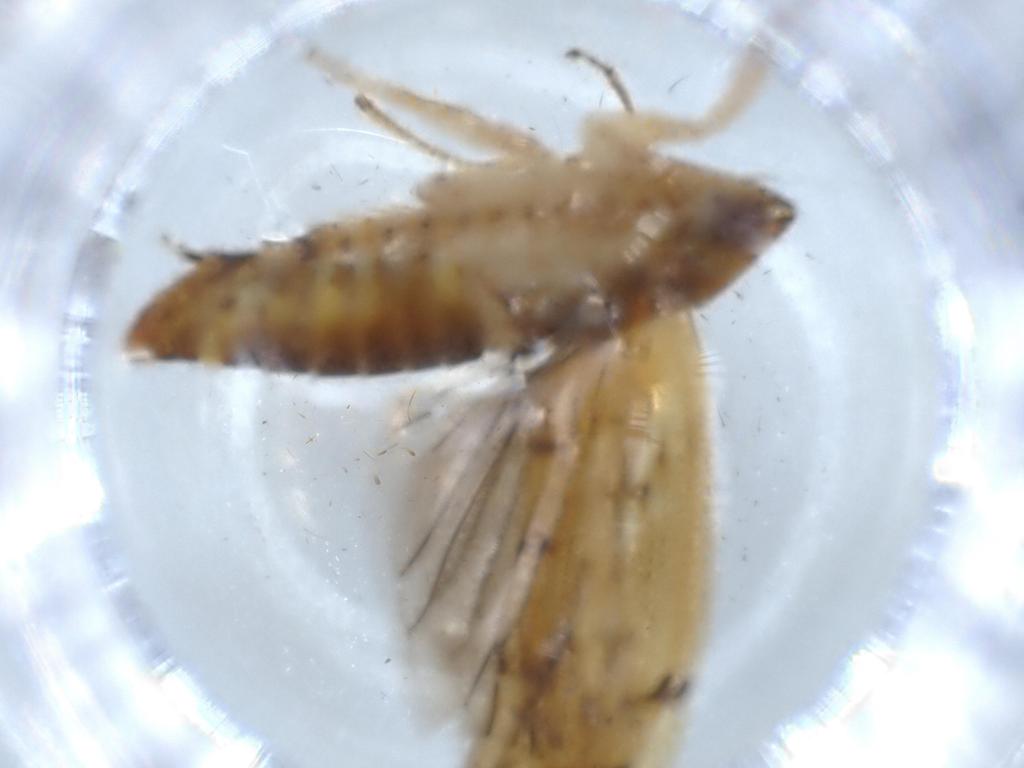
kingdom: Animalia
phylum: Arthropoda
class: Insecta
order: Hemiptera
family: Cicadellidae
